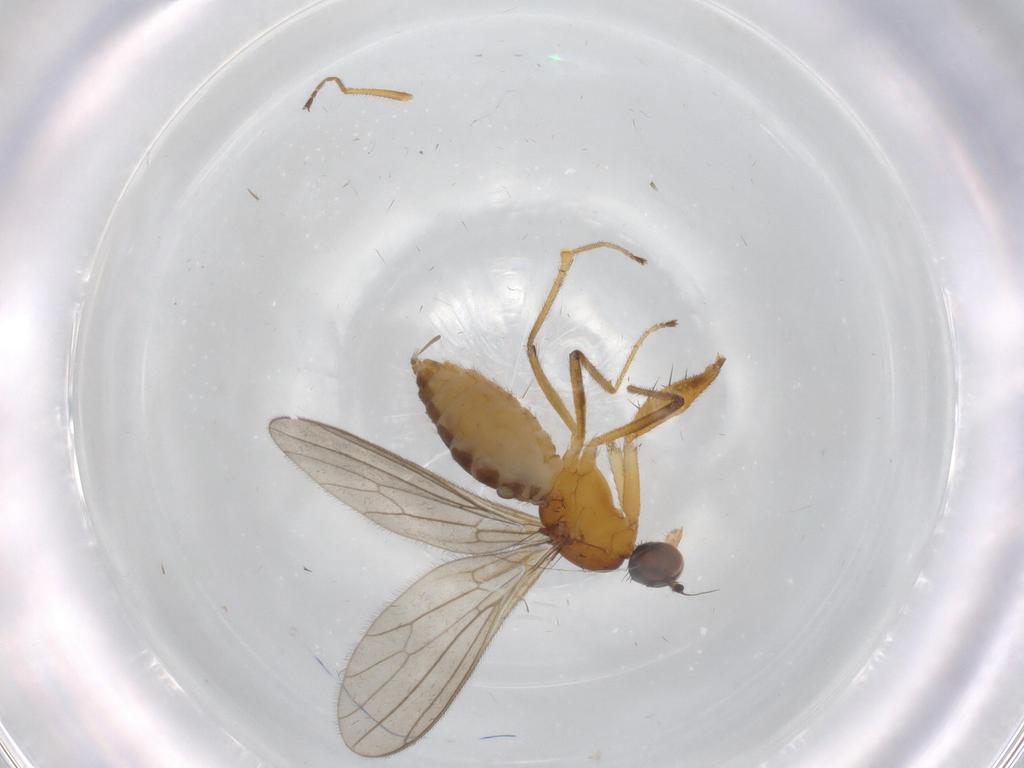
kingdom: Animalia
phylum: Arthropoda
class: Insecta
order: Diptera
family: Empididae
